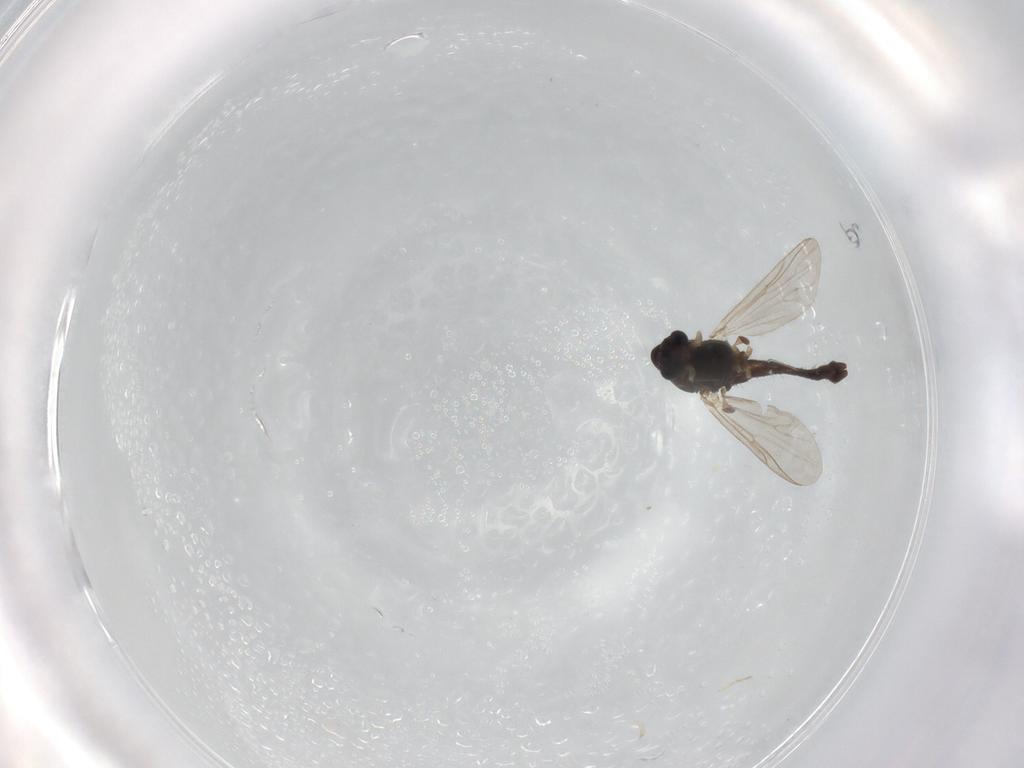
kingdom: Animalia
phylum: Arthropoda
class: Insecta
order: Diptera
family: Chironomidae
